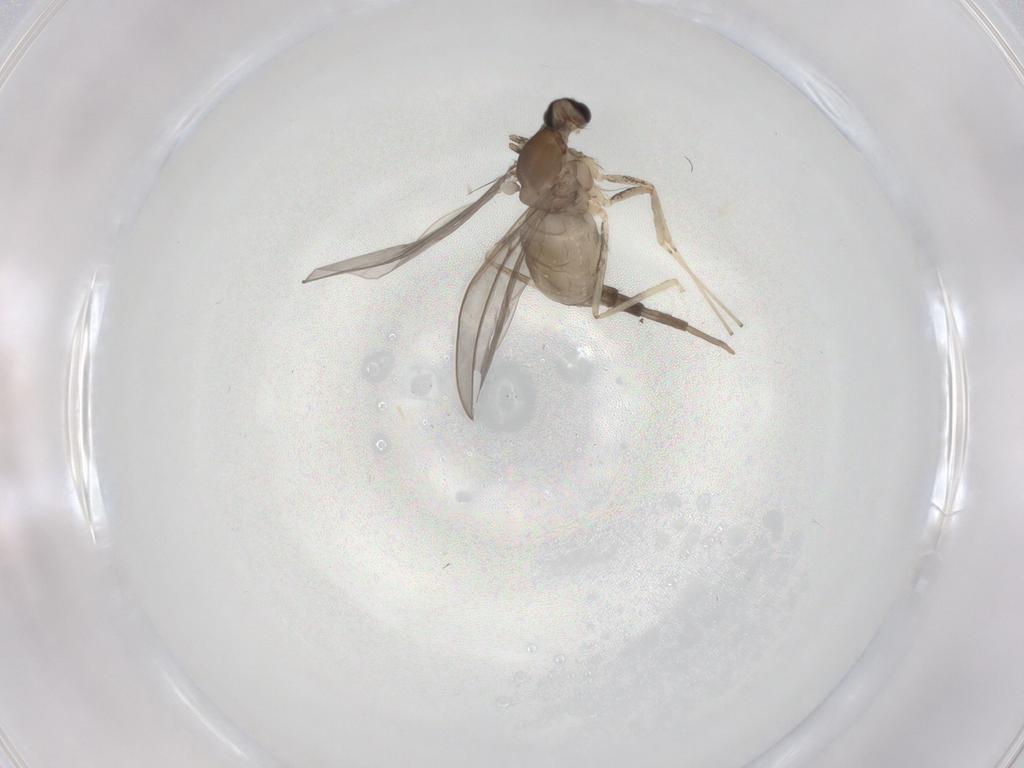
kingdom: Animalia
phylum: Arthropoda
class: Insecta
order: Diptera
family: Cecidomyiidae
